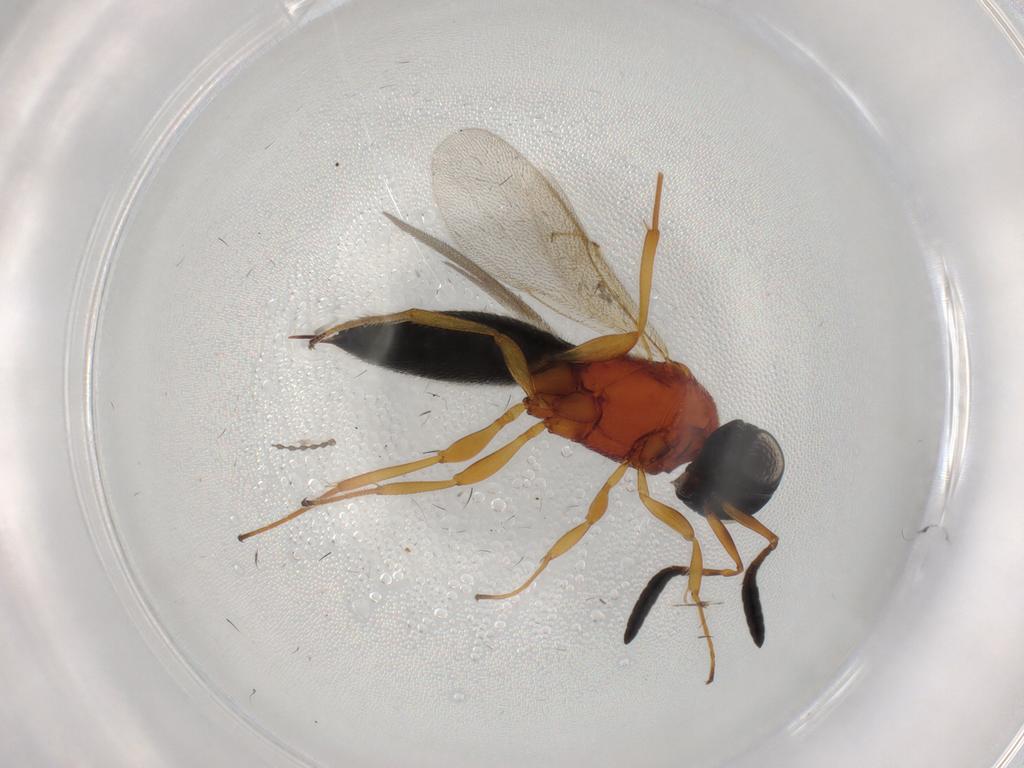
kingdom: Animalia
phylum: Arthropoda
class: Insecta
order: Hymenoptera
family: Scelionidae
